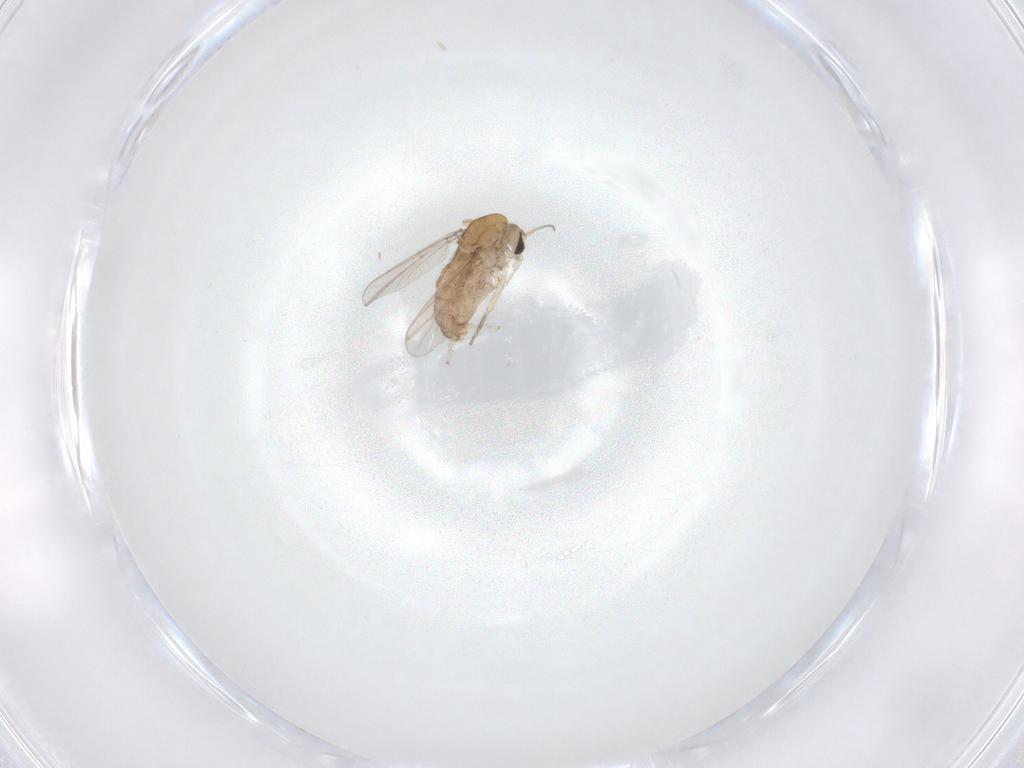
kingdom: Animalia
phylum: Arthropoda
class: Insecta
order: Diptera
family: Chironomidae
